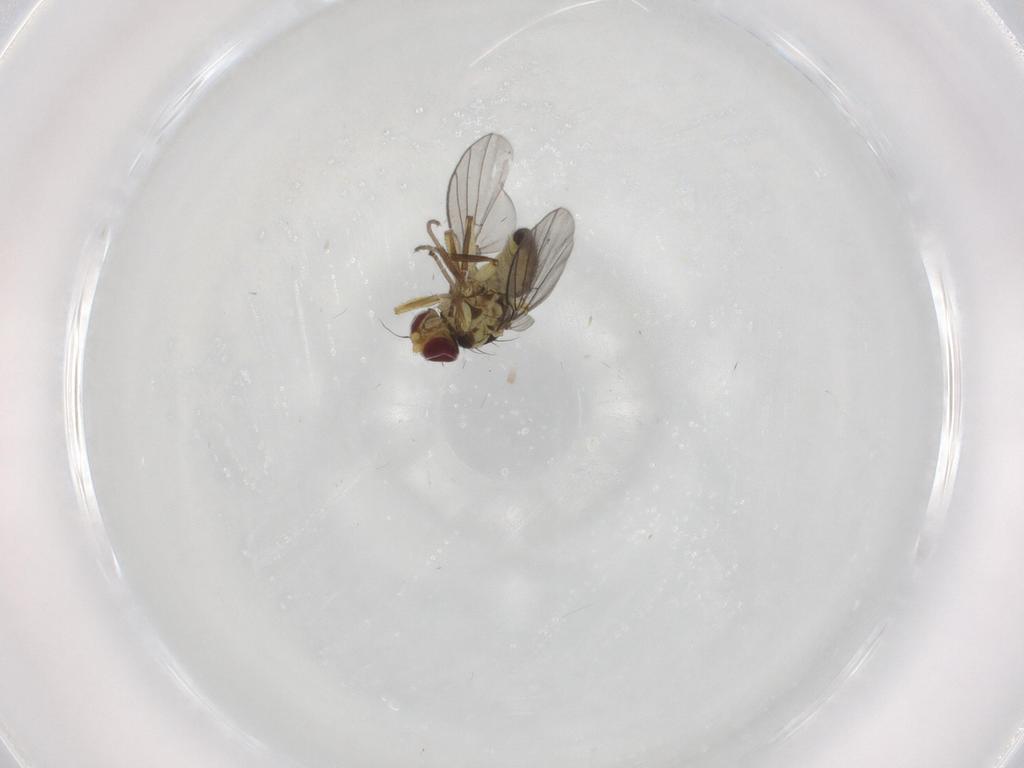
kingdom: Animalia
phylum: Arthropoda
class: Insecta
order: Diptera
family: Agromyzidae
